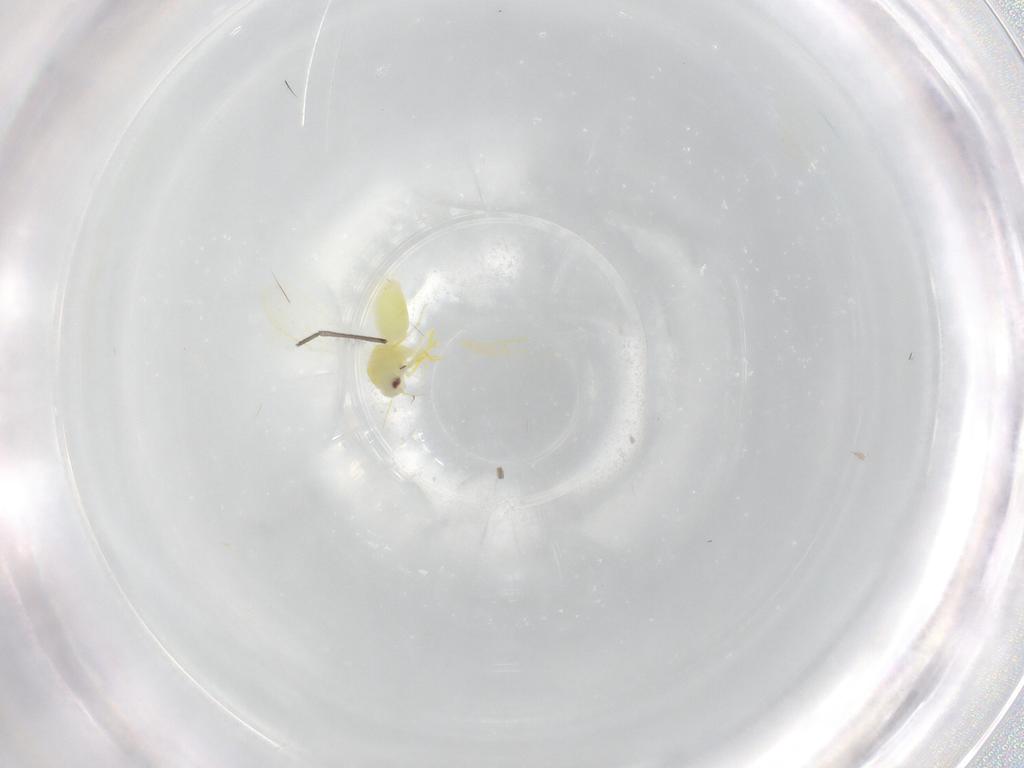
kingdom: Animalia
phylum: Arthropoda
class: Insecta
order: Hemiptera
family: Aleyrodidae
